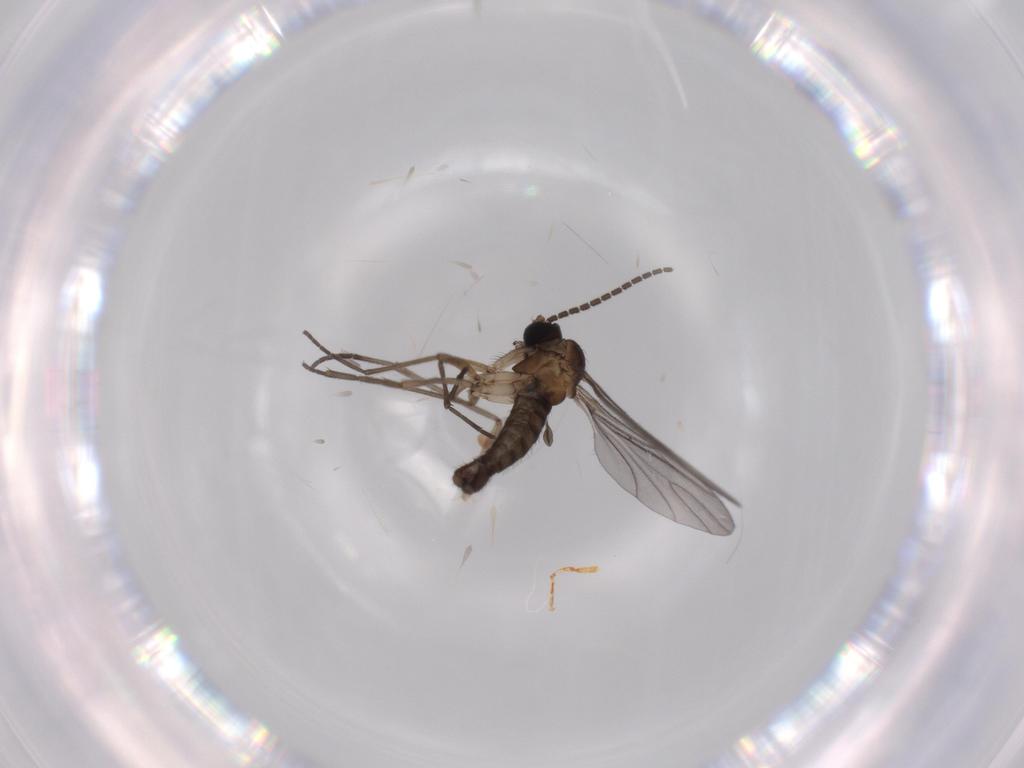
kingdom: Animalia
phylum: Arthropoda
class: Insecta
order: Diptera
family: Sciaridae
